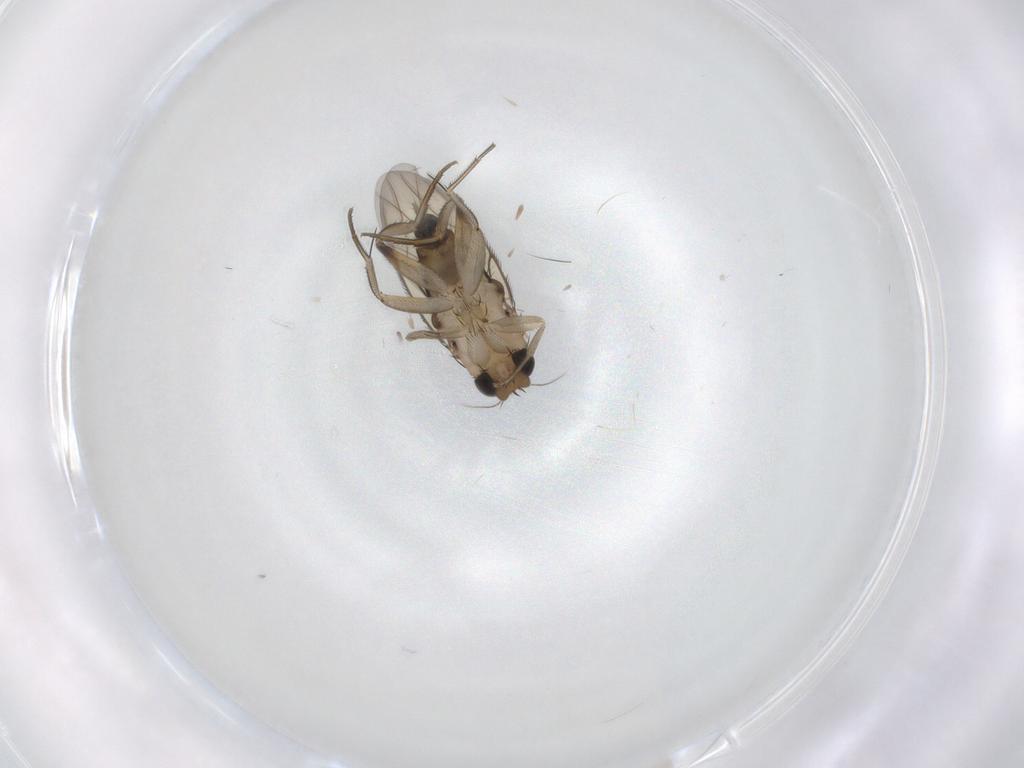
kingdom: Animalia
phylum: Arthropoda
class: Insecta
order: Diptera
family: Phoridae
